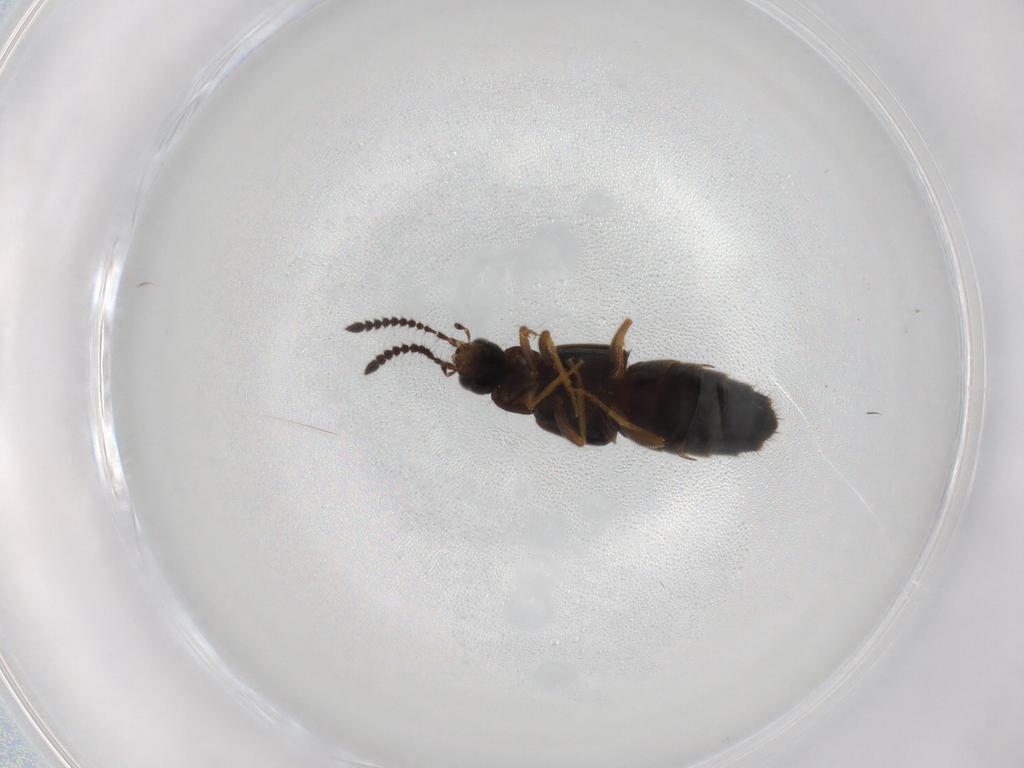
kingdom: Animalia
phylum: Arthropoda
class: Insecta
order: Coleoptera
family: Staphylinidae
